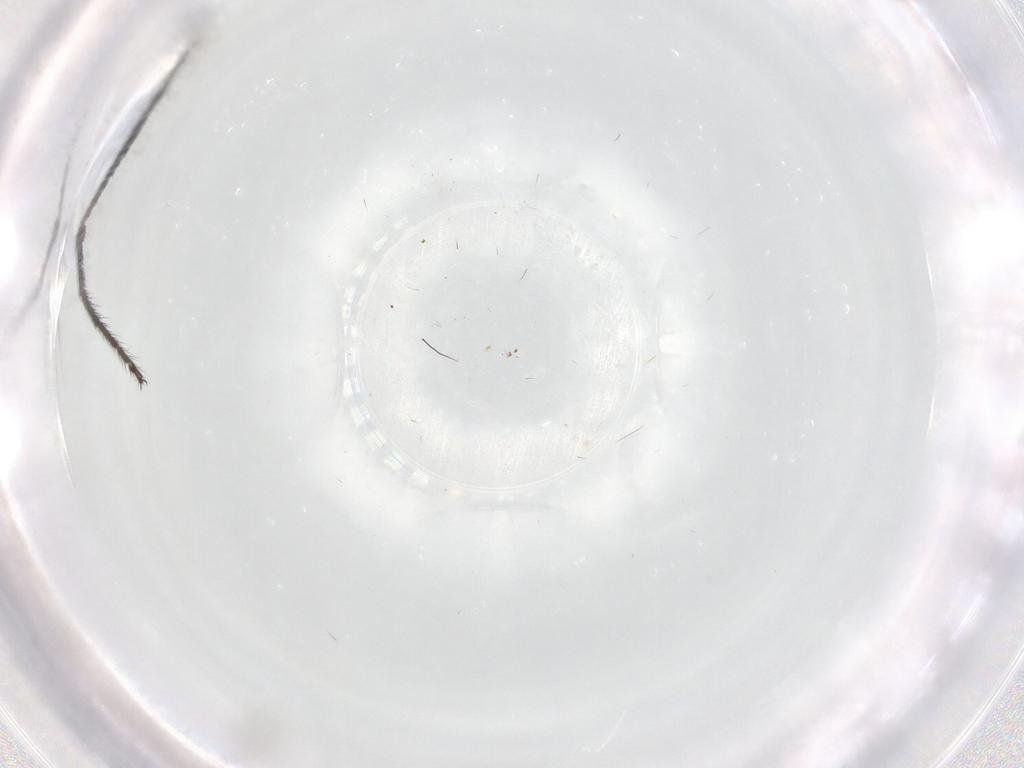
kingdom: Animalia
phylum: Arthropoda
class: Insecta
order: Diptera
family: Limoniidae
